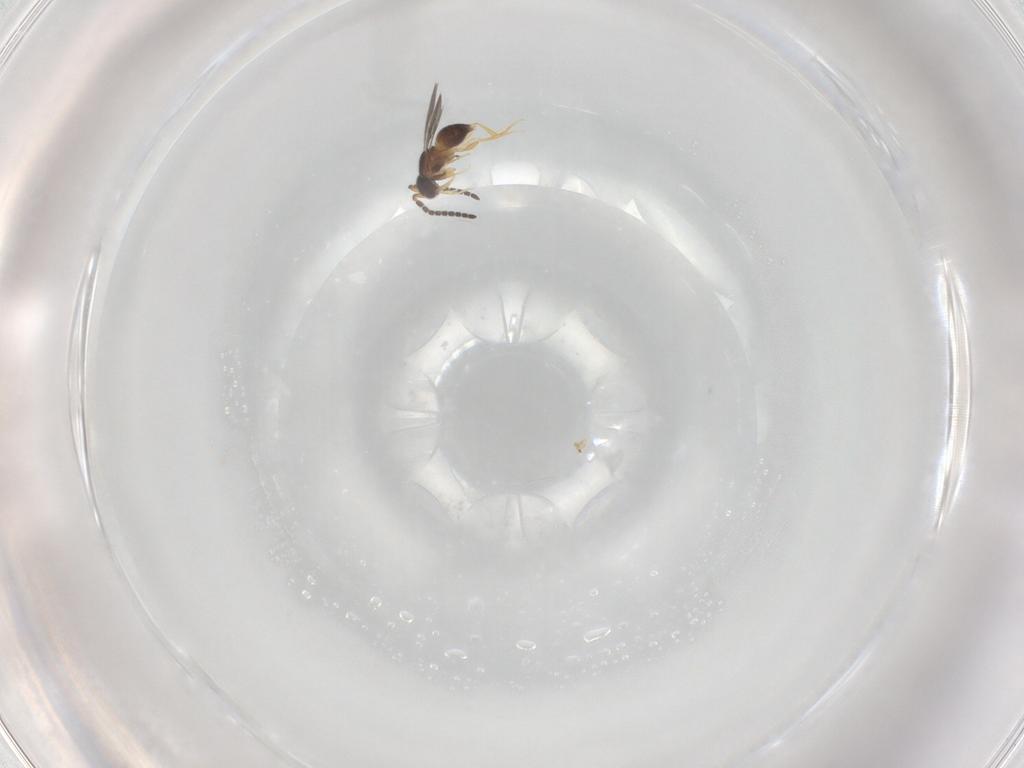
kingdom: Animalia
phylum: Arthropoda
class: Insecta
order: Hymenoptera
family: Ceraphronidae
